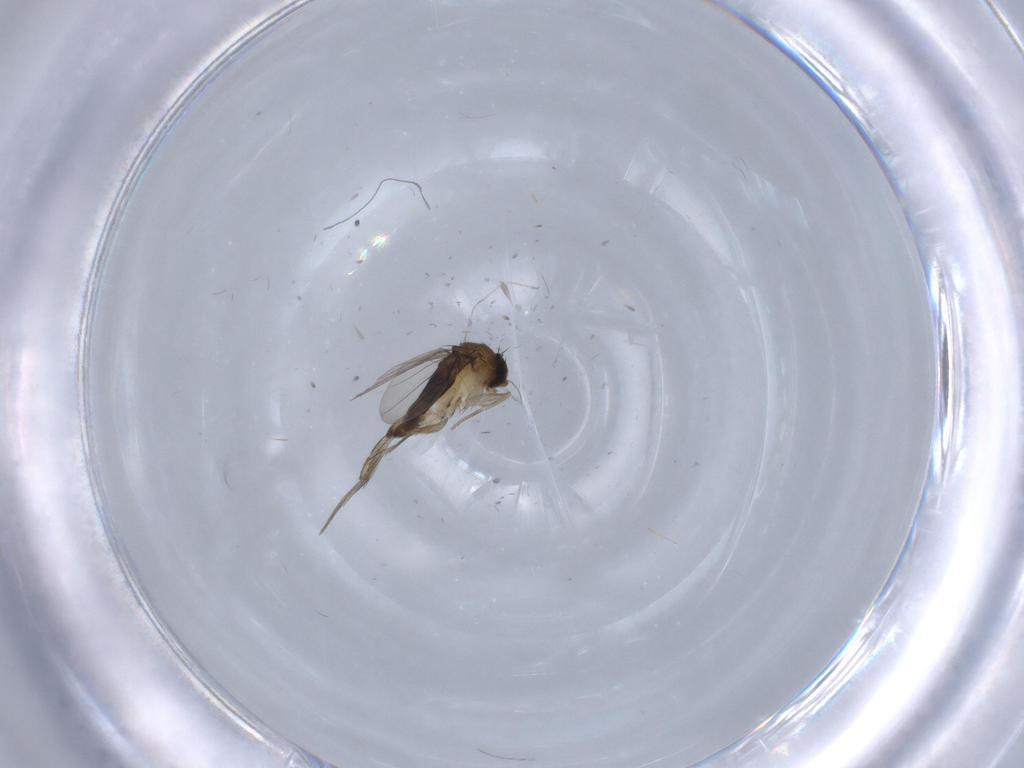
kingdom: Animalia
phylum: Arthropoda
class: Insecta
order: Diptera
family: Phoridae
